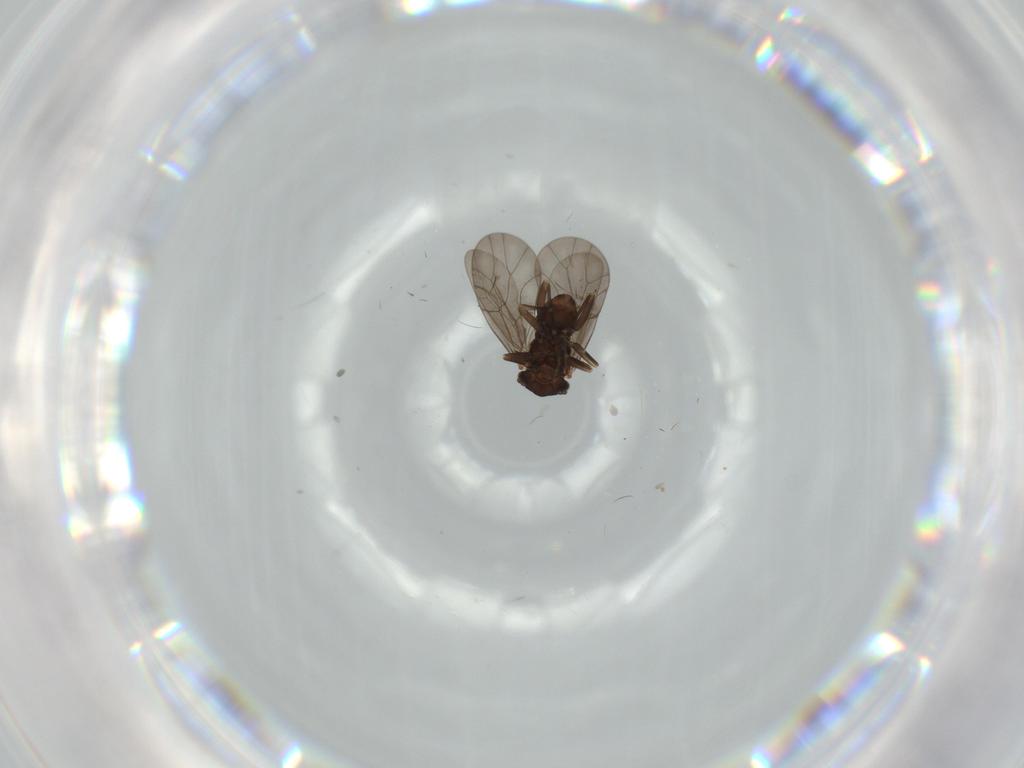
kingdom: Animalia
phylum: Arthropoda
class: Insecta
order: Psocodea
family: Lepidopsocidae
